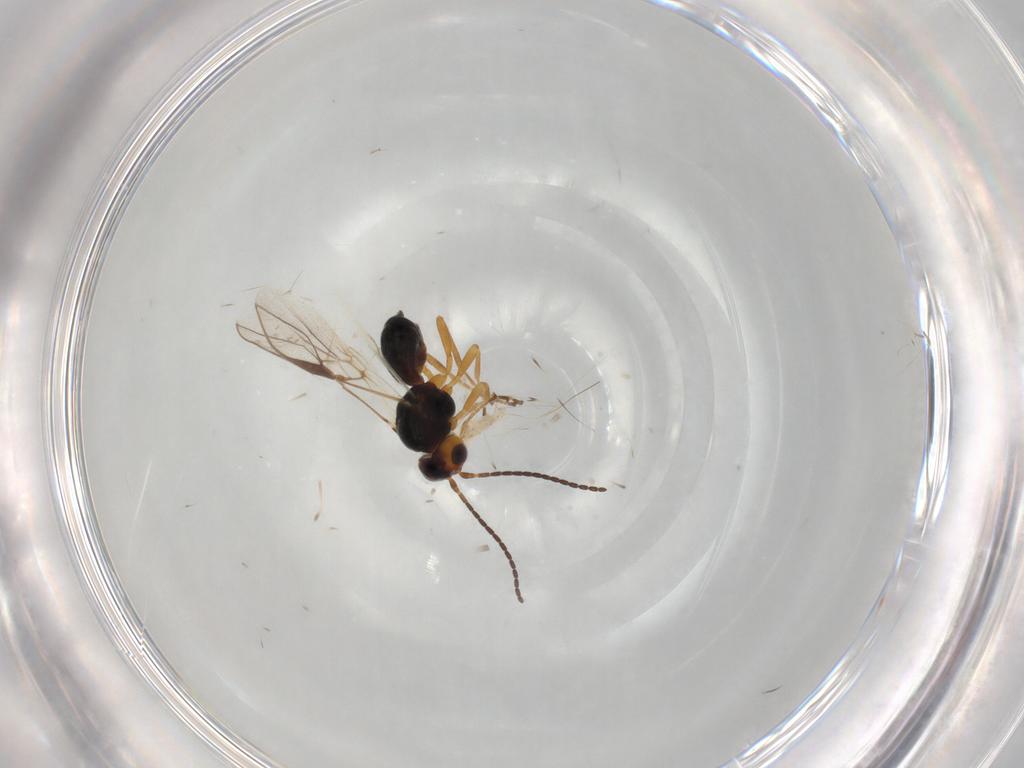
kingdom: Animalia
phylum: Arthropoda
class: Insecta
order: Hymenoptera
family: Braconidae
